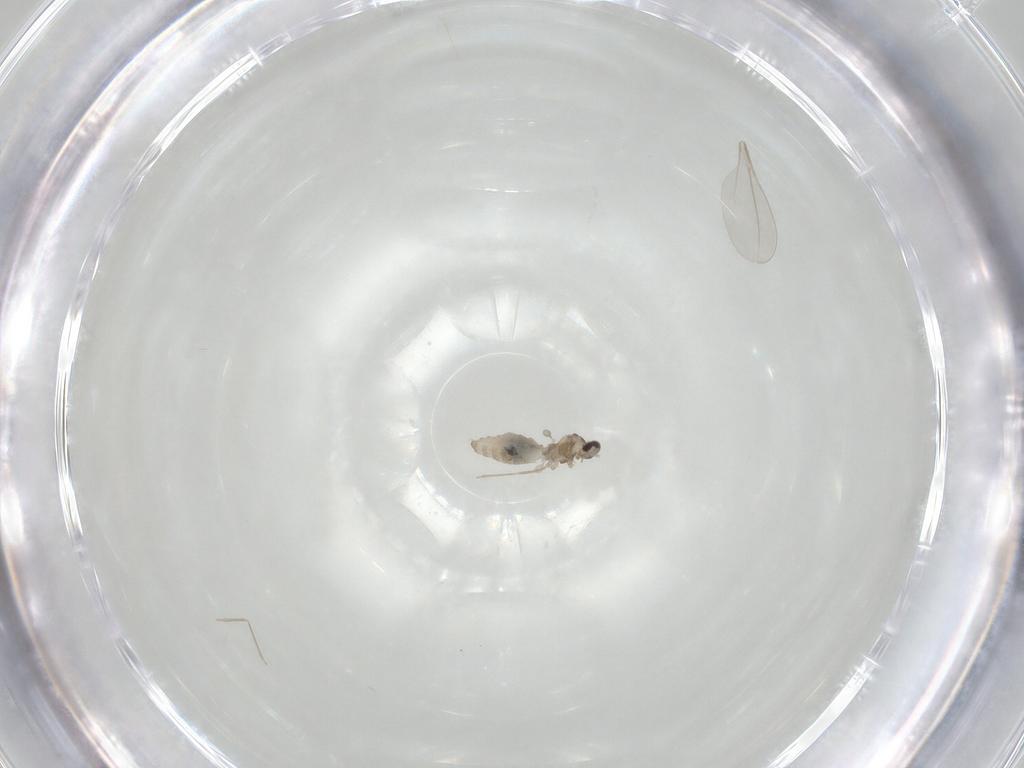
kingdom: Animalia
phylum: Arthropoda
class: Insecta
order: Diptera
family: Cecidomyiidae
